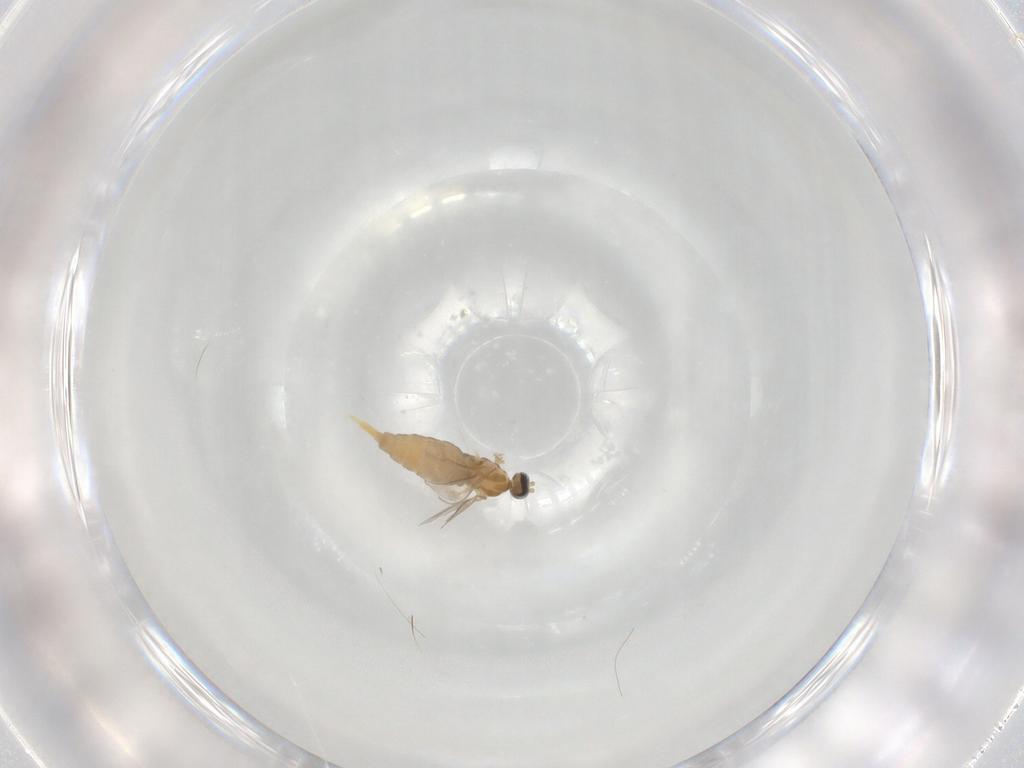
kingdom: Animalia
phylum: Arthropoda
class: Insecta
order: Diptera
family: Cecidomyiidae
